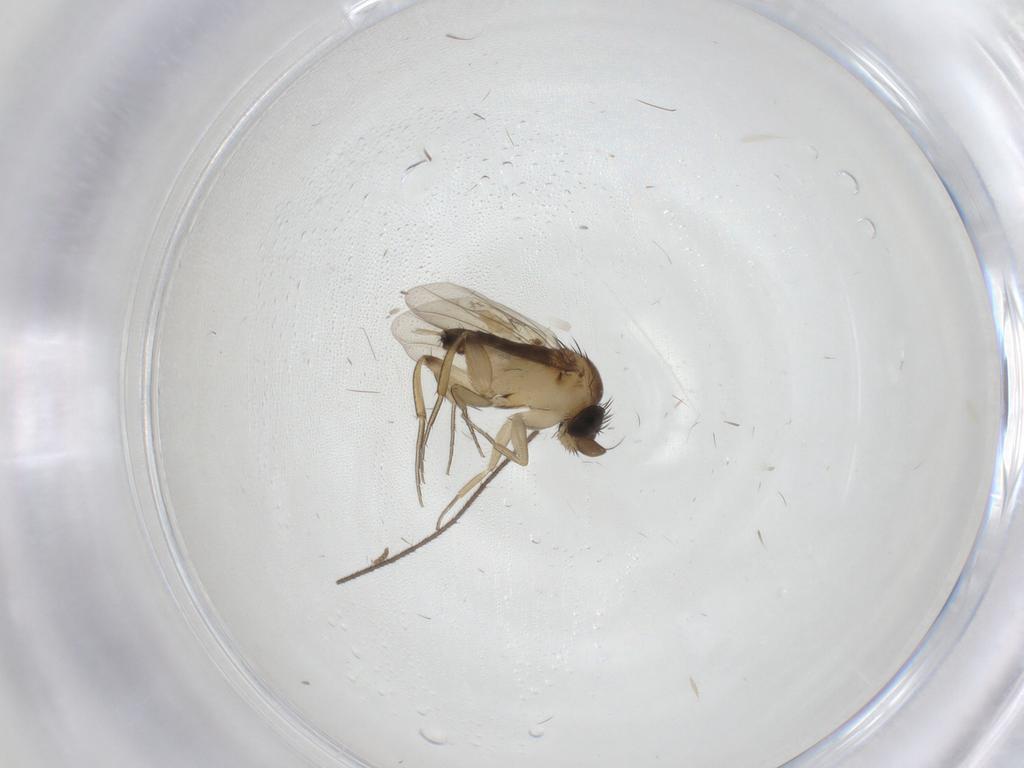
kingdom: Animalia
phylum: Arthropoda
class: Insecta
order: Diptera
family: Phoridae
